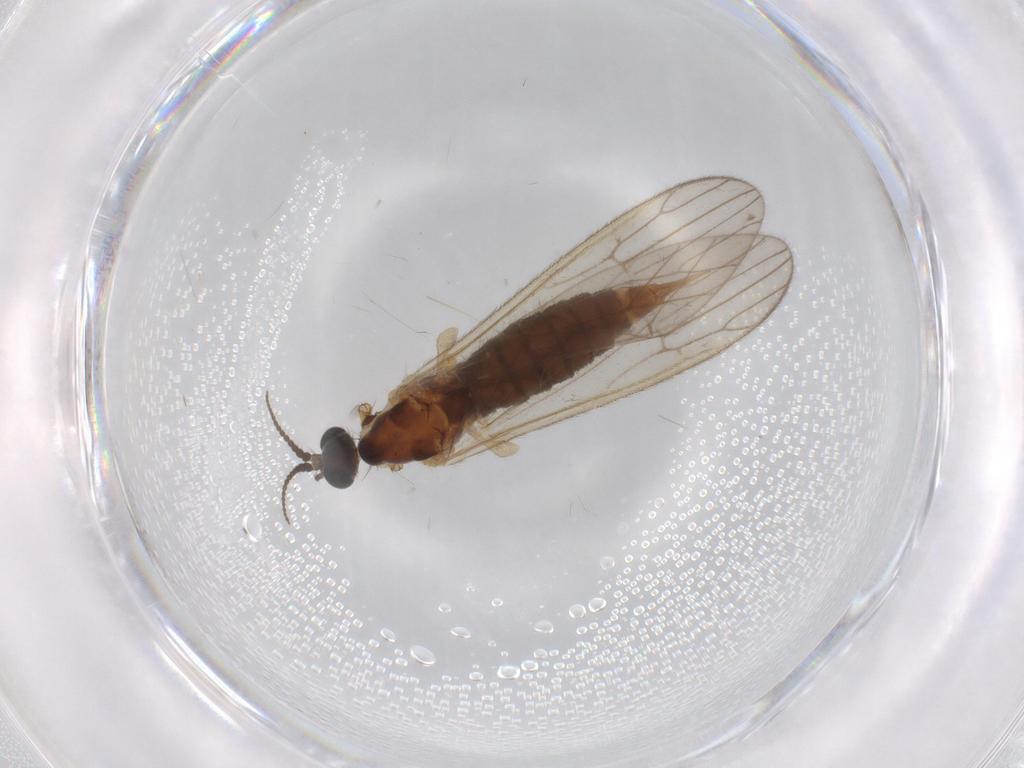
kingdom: Animalia
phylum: Arthropoda
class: Insecta
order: Diptera
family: Agromyzidae
